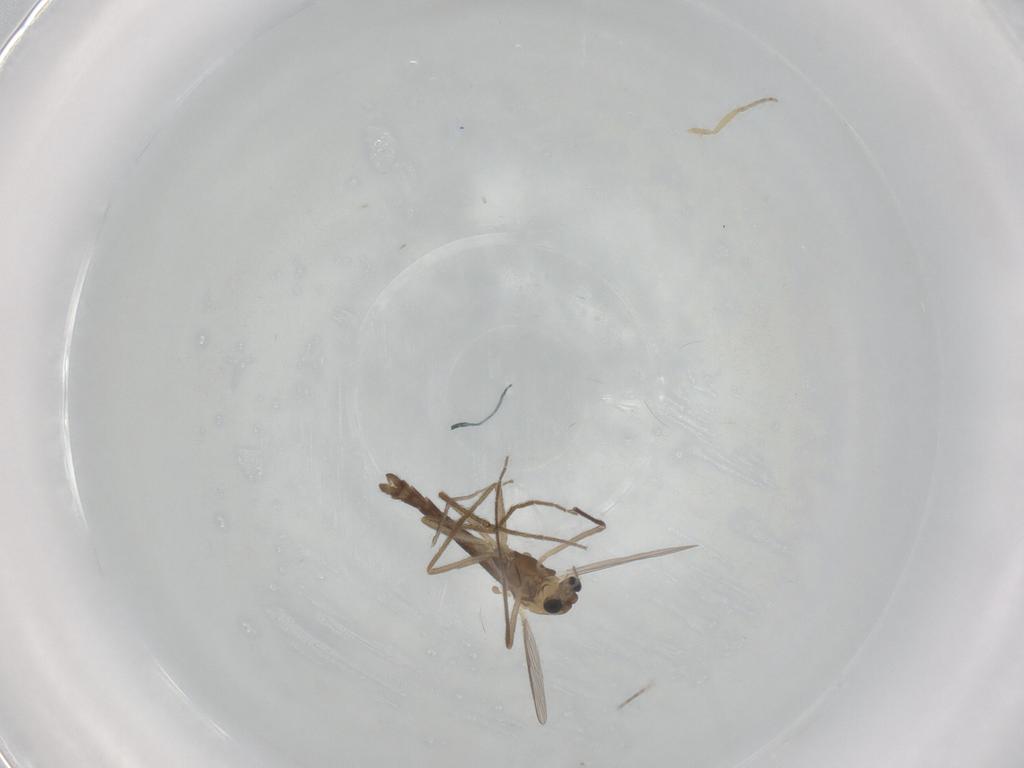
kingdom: Animalia
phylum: Arthropoda
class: Insecta
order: Diptera
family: Chironomidae
